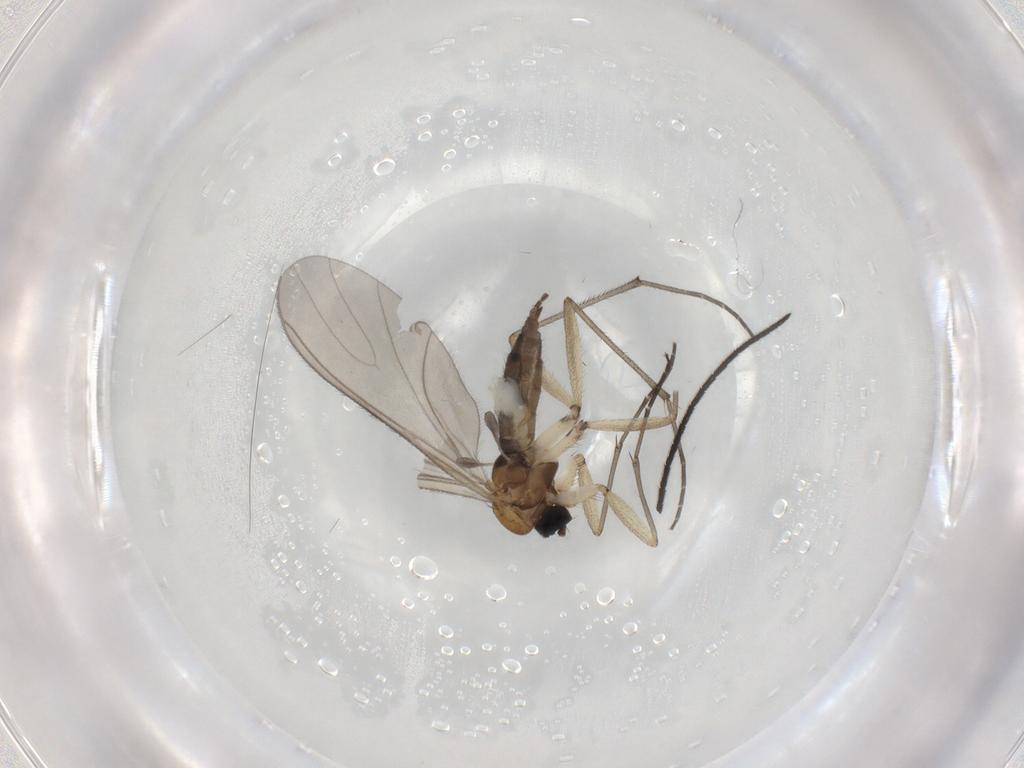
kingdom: Animalia
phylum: Arthropoda
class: Insecta
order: Diptera
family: Sciaridae
